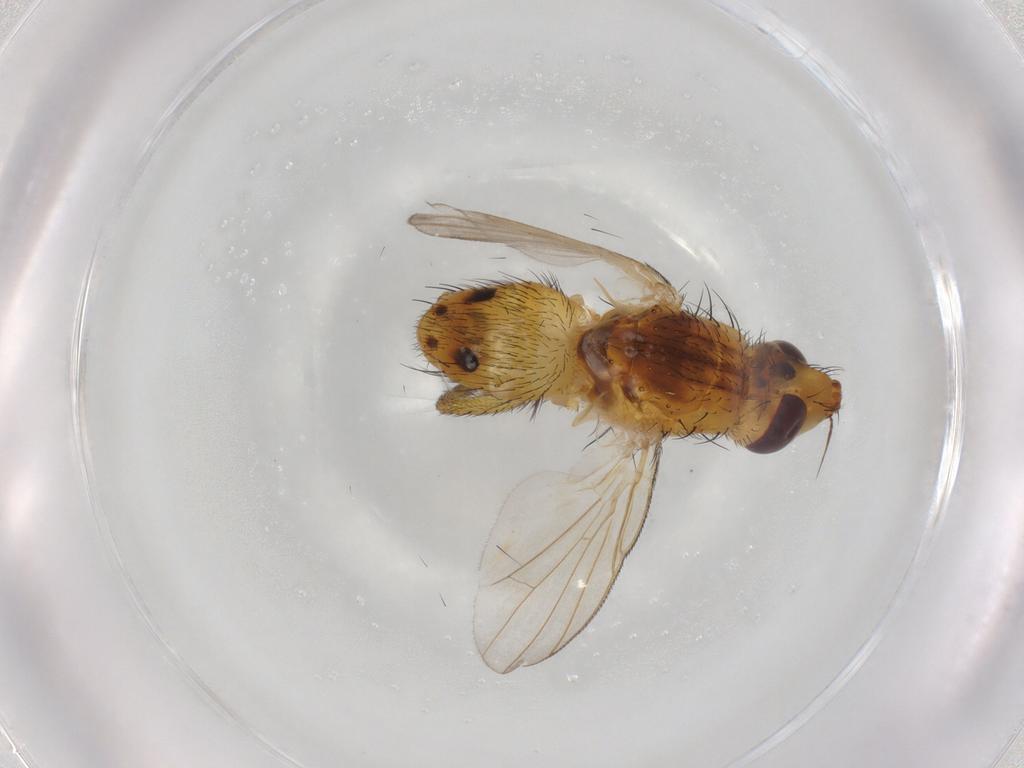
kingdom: Animalia
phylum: Arthropoda
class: Insecta
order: Diptera
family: Muscidae
